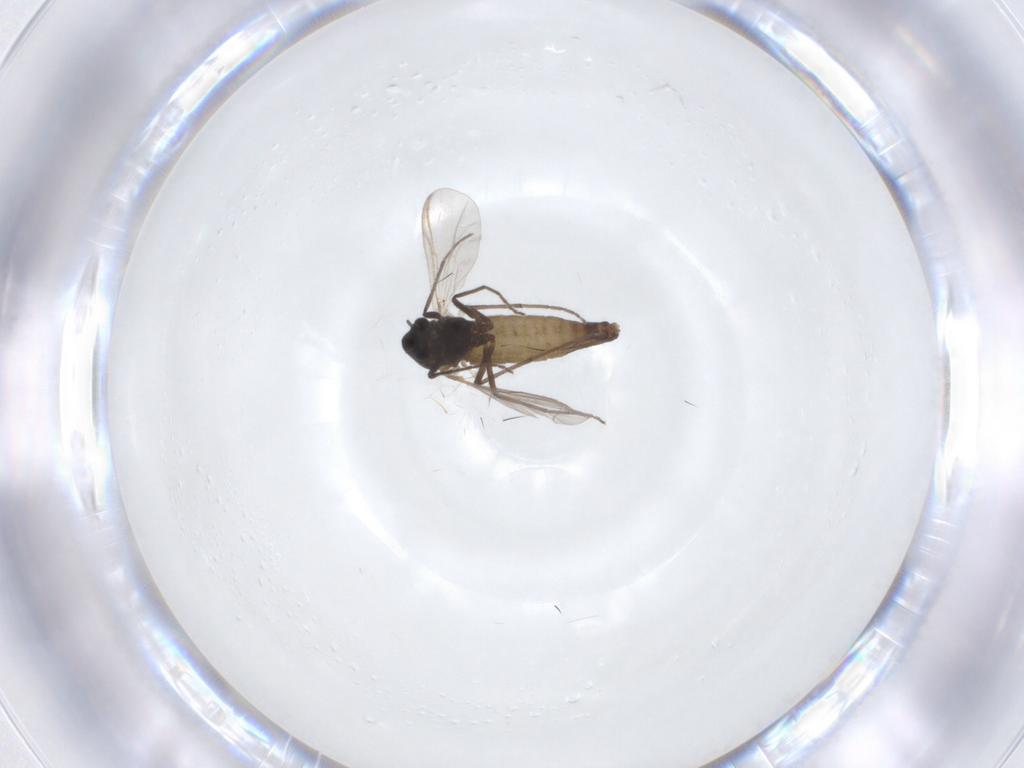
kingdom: Animalia
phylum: Arthropoda
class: Insecta
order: Diptera
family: Chironomidae
